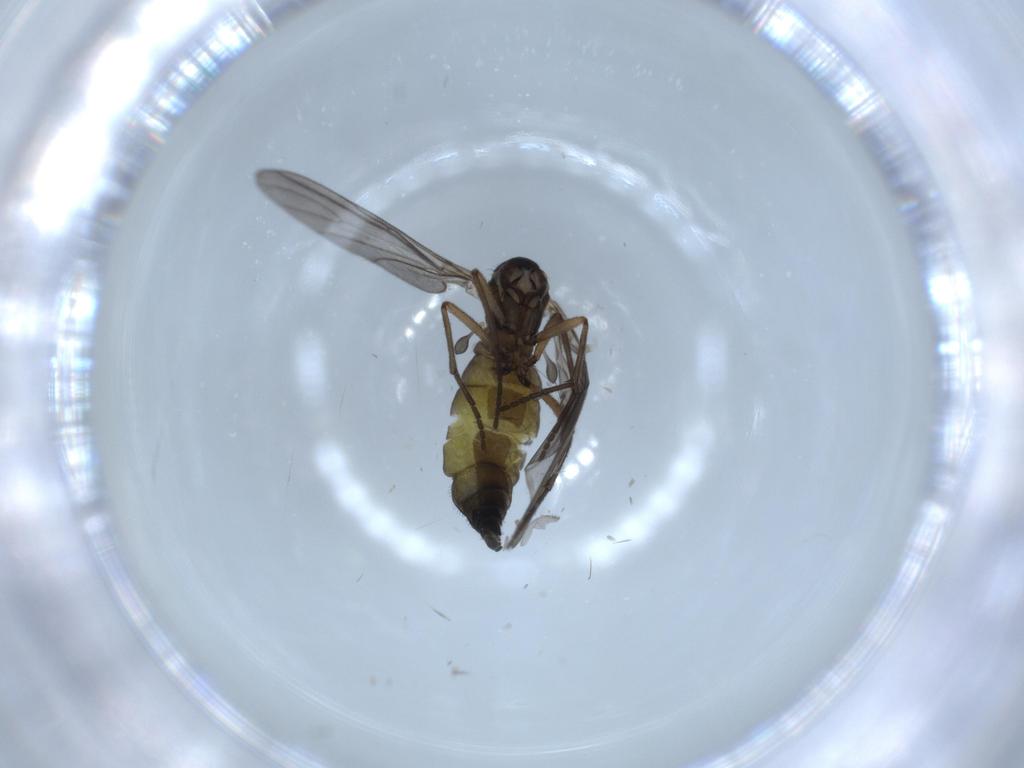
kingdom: Animalia
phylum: Arthropoda
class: Insecta
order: Diptera
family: Sciaridae
